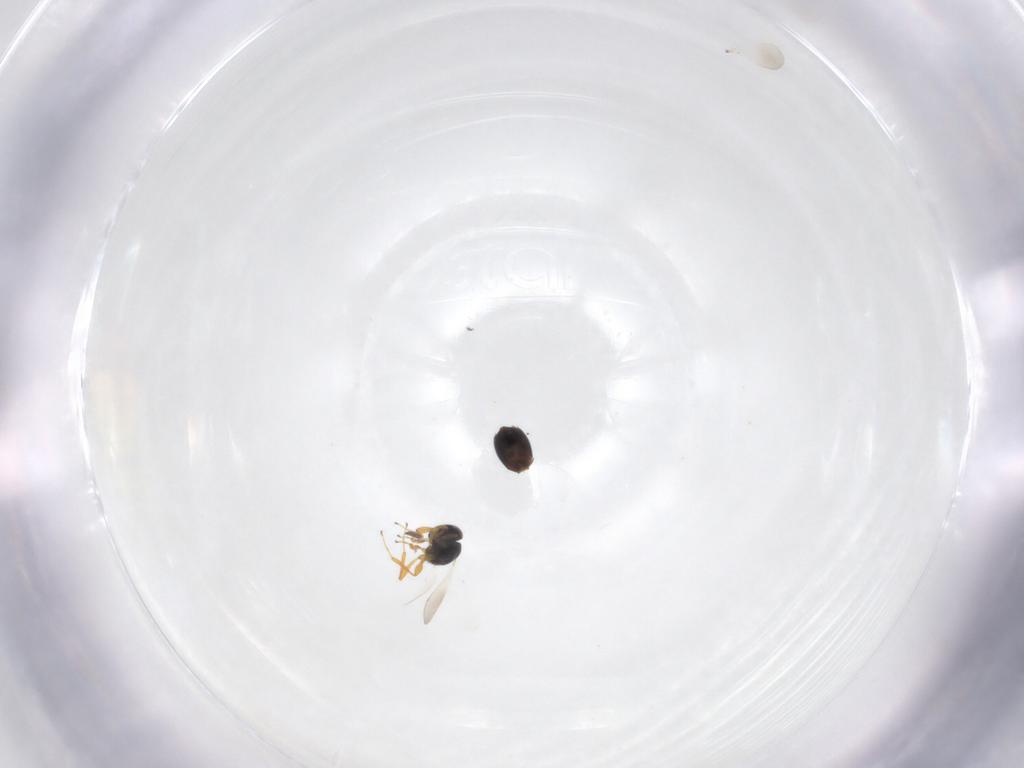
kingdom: Animalia
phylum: Arthropoda
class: Insecta
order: Hymenoptera
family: Platygastridae
